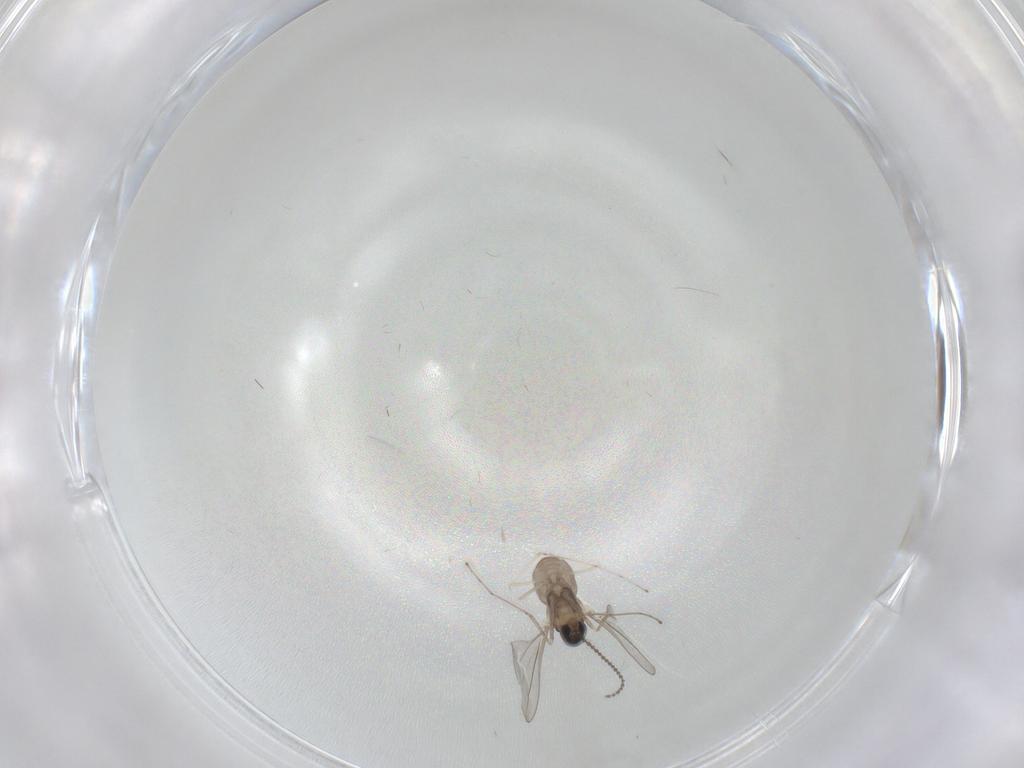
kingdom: Animalia
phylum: Arthropoda
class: Insecta
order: Diptera
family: Cecidomyiidae
